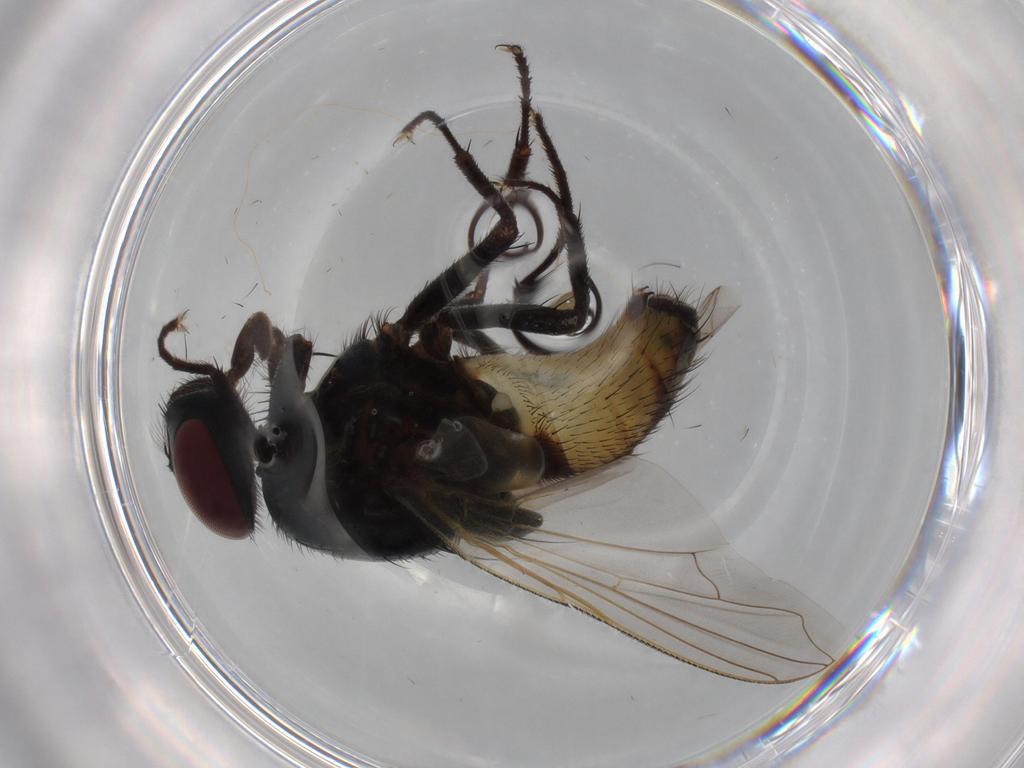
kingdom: Animalia
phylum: Arthropoda
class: Insecta
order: Diptera
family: Muscidae
